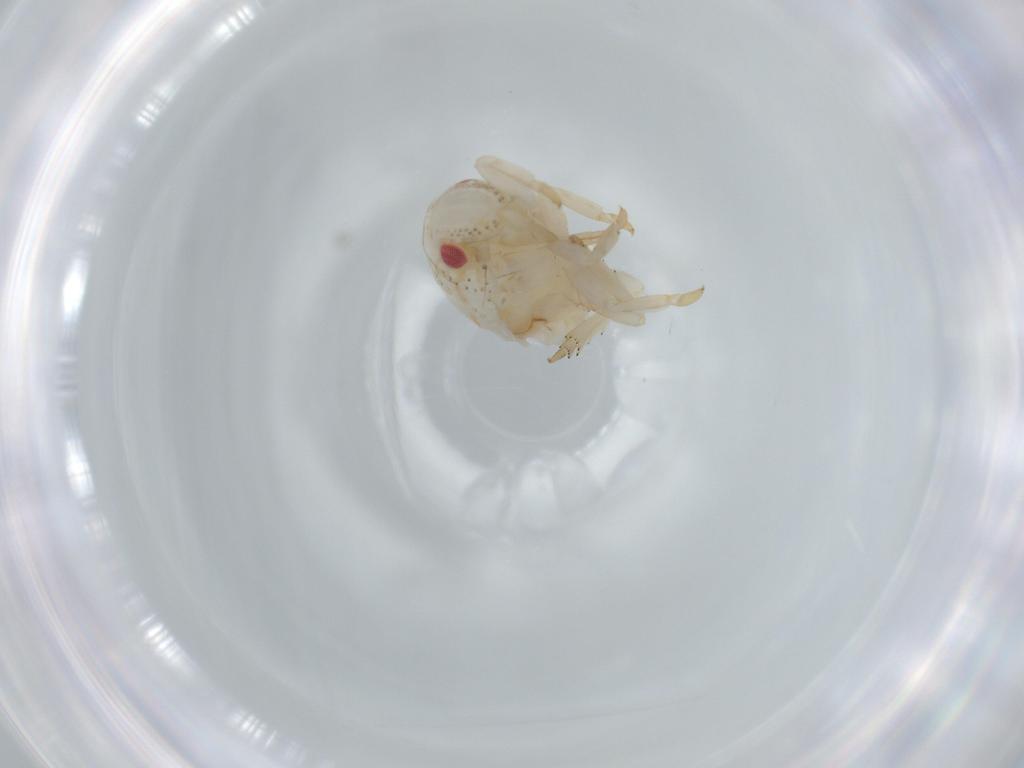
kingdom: Animalia
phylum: Arthropoda
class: Insecta
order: Hemiptera
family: Acanaloniidae
